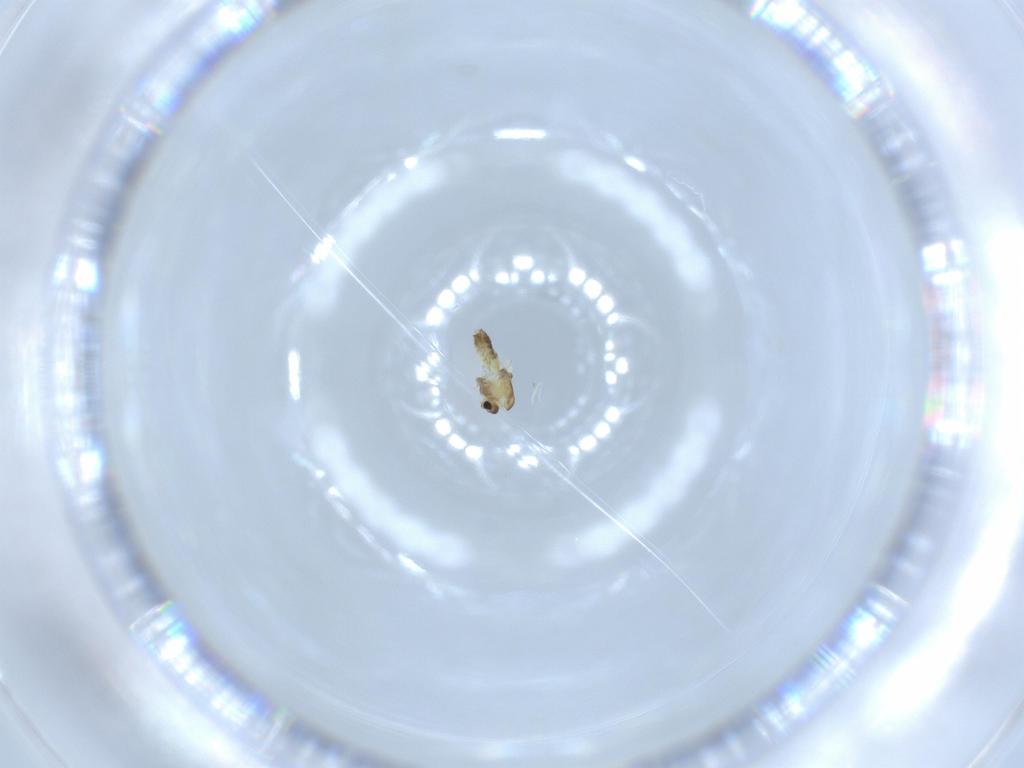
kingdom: Animalia
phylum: Arthropoda
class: Insecta
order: Diptera
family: Chironomidae
